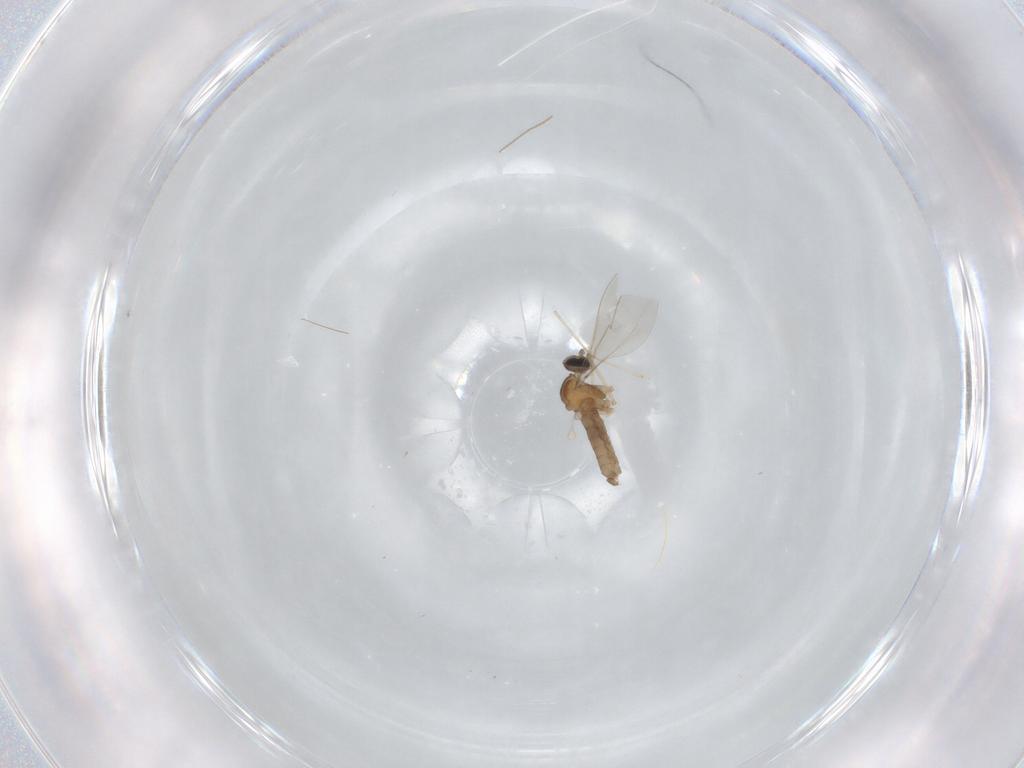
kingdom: Animalia
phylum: Arthropoda
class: Insecta
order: Diptera
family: Cecidomyiidae
